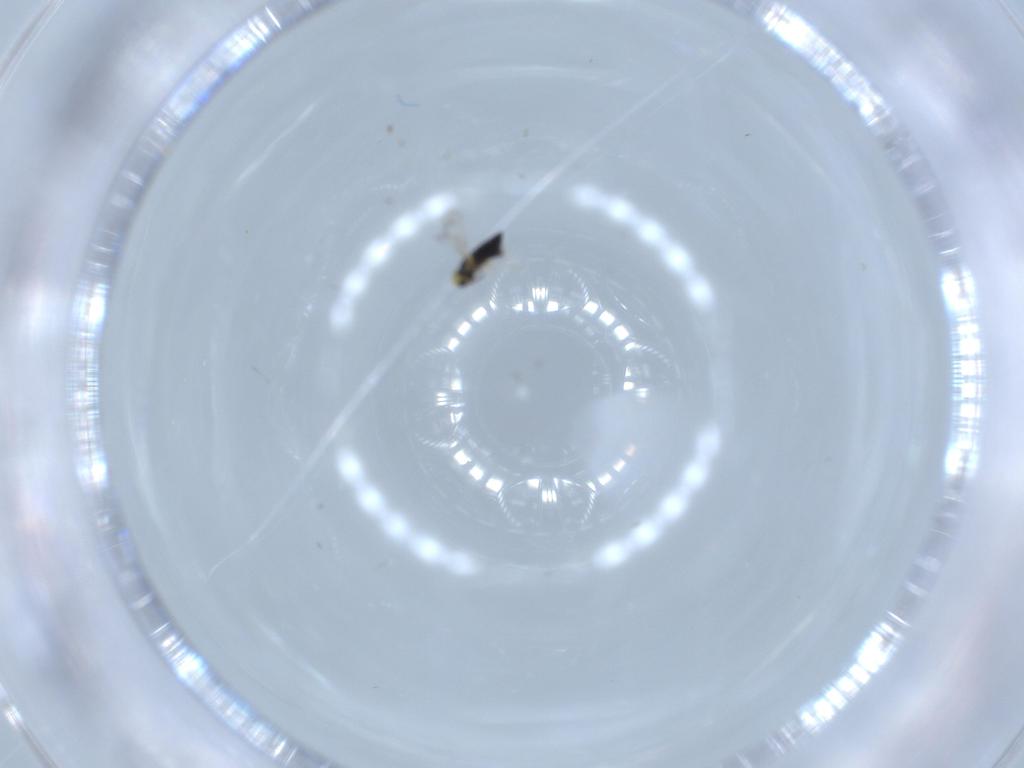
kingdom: Animalia
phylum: Arthropoda
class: Insecta
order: Hymenoptera
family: Signiphoridae
